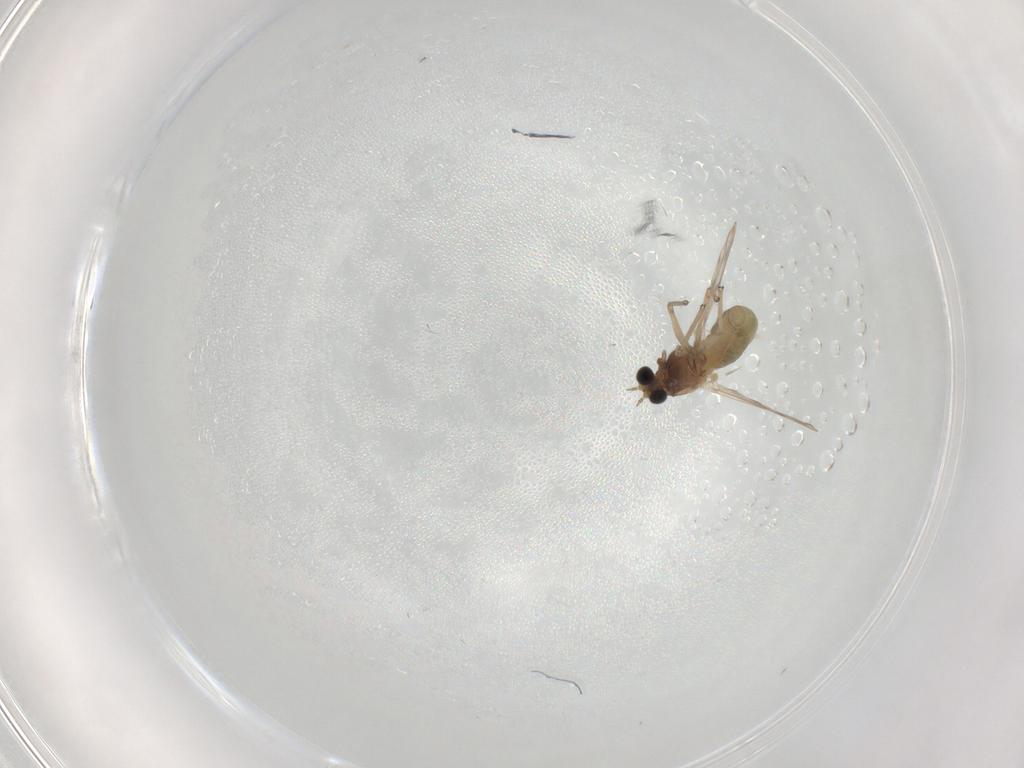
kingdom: Animalia
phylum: Arthropoda
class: Insecta
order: Diptera
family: Chironomidae
